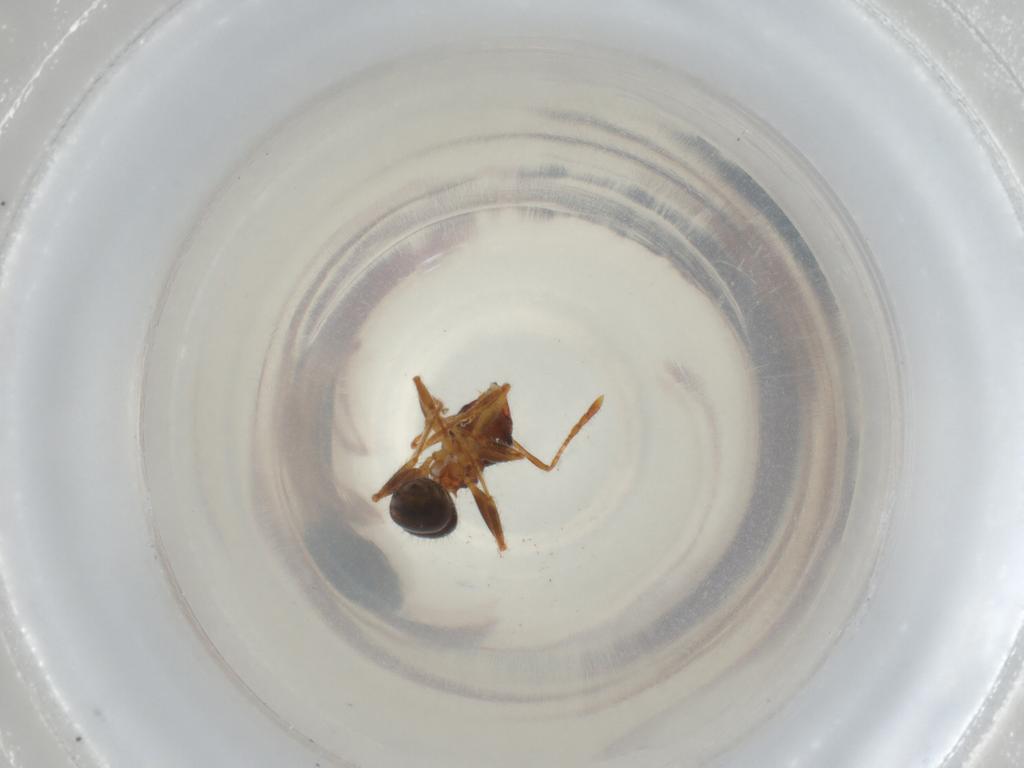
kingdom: Animalia
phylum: Arthropoda
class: Insecta
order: Hymenoptera
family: Formicidae
